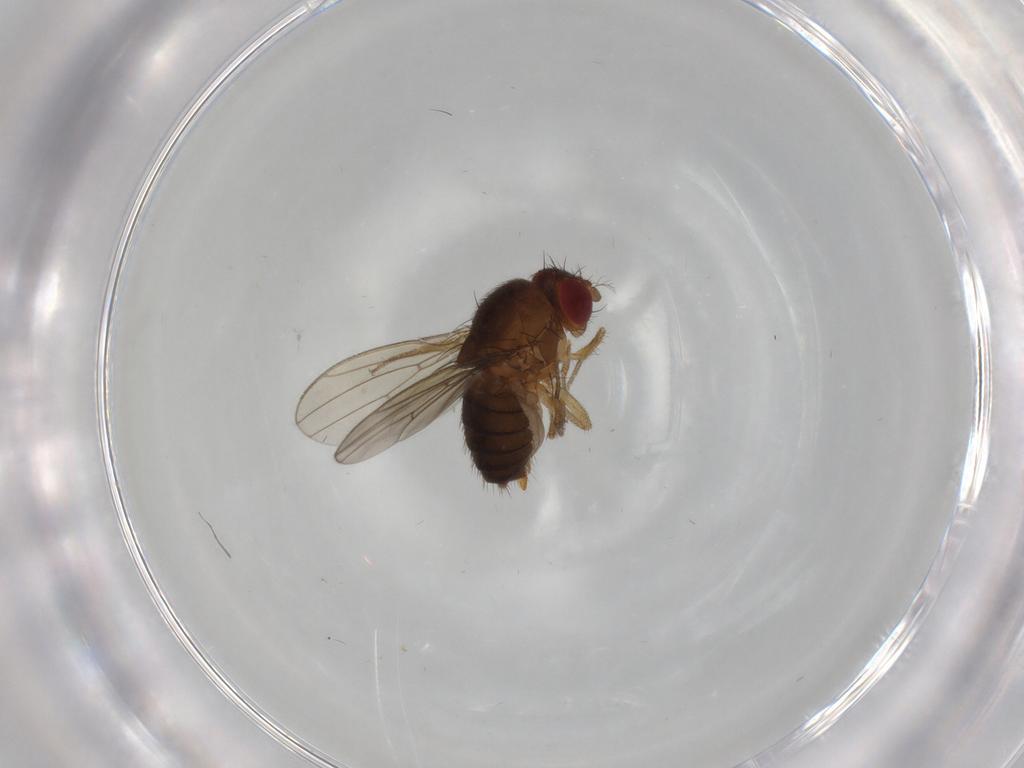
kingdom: Animalia
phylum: Arthropoda
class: Insecta
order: Diptera
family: Drosophilidae
